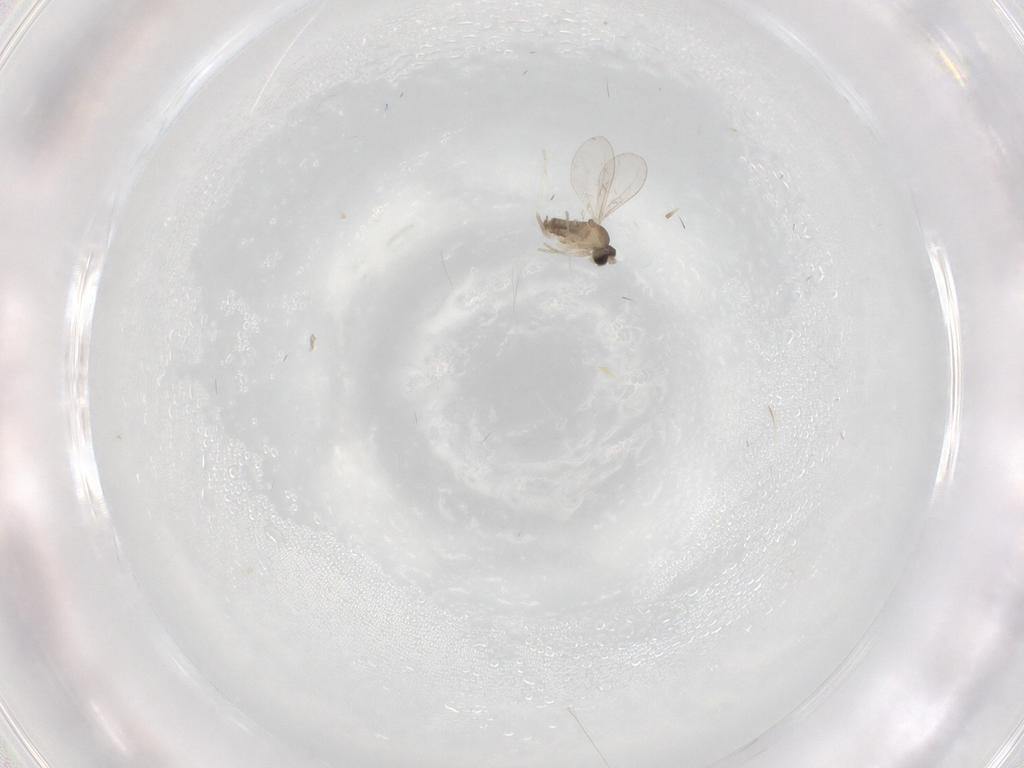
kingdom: Animalia
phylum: Arthropoda
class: Insecta
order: Diptera
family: Cecidomyiidae
